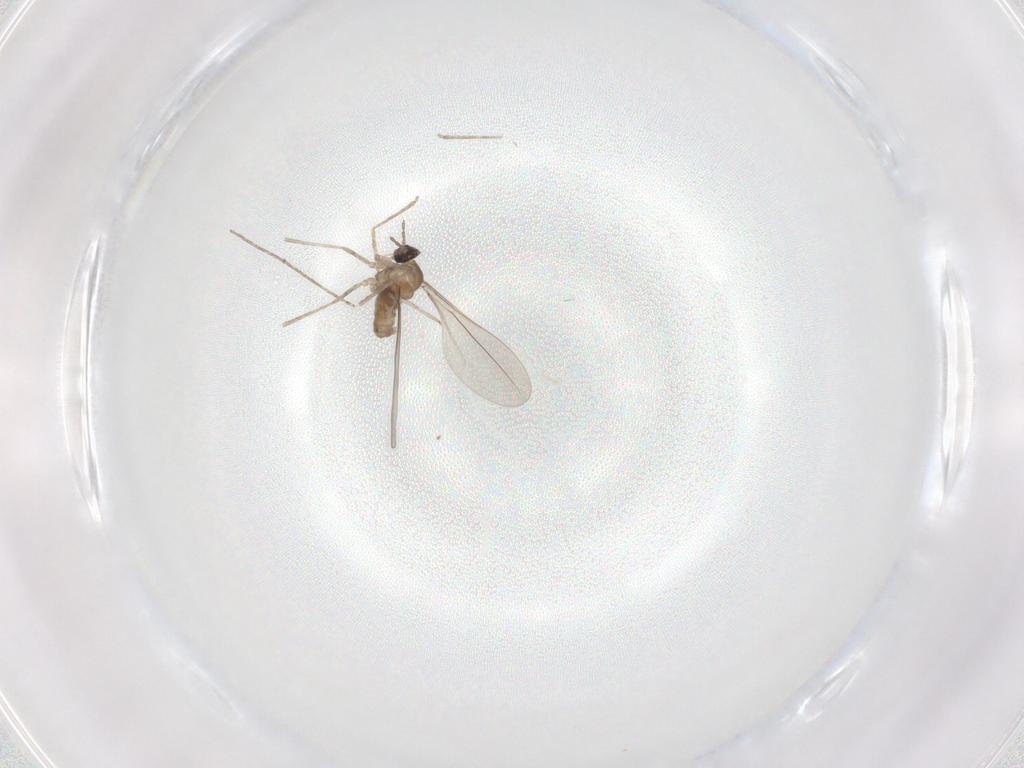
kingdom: Animalia
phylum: Arthropoda
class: Insecta
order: Diptera
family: Cecidomyiidae
